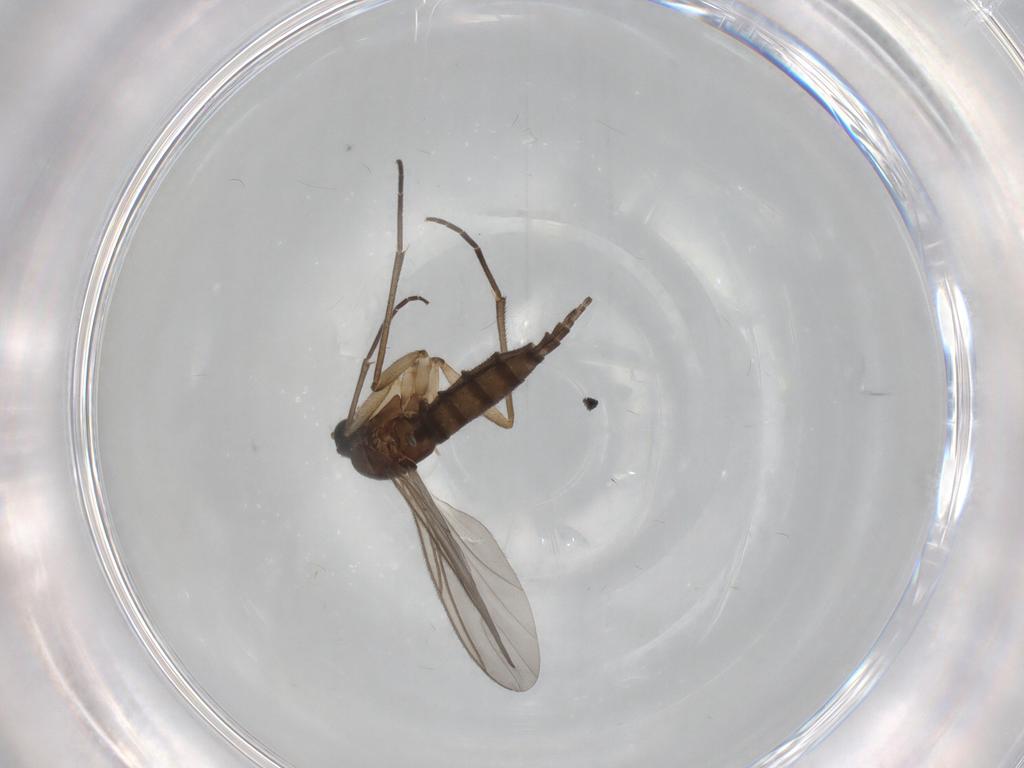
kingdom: Animalia
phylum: Arthropoda
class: Insecta
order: Diptera
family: Sciaridae
